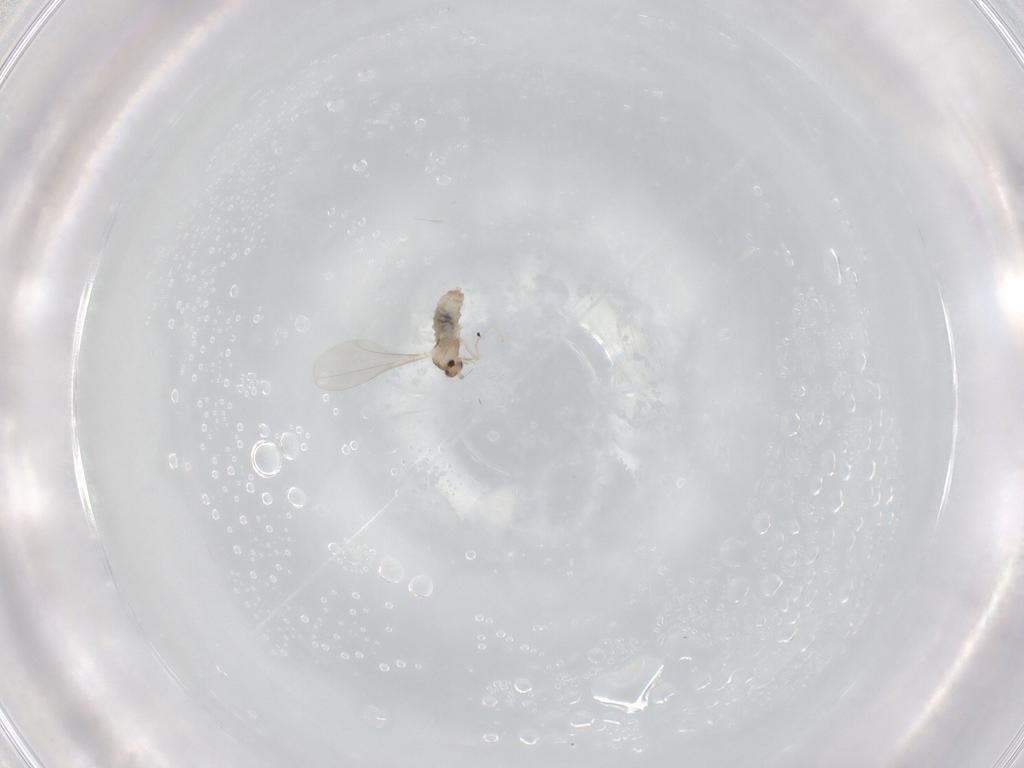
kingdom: Animalia
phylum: Arthropoda
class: Insecta
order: Diptera
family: Cecidomyiidae
